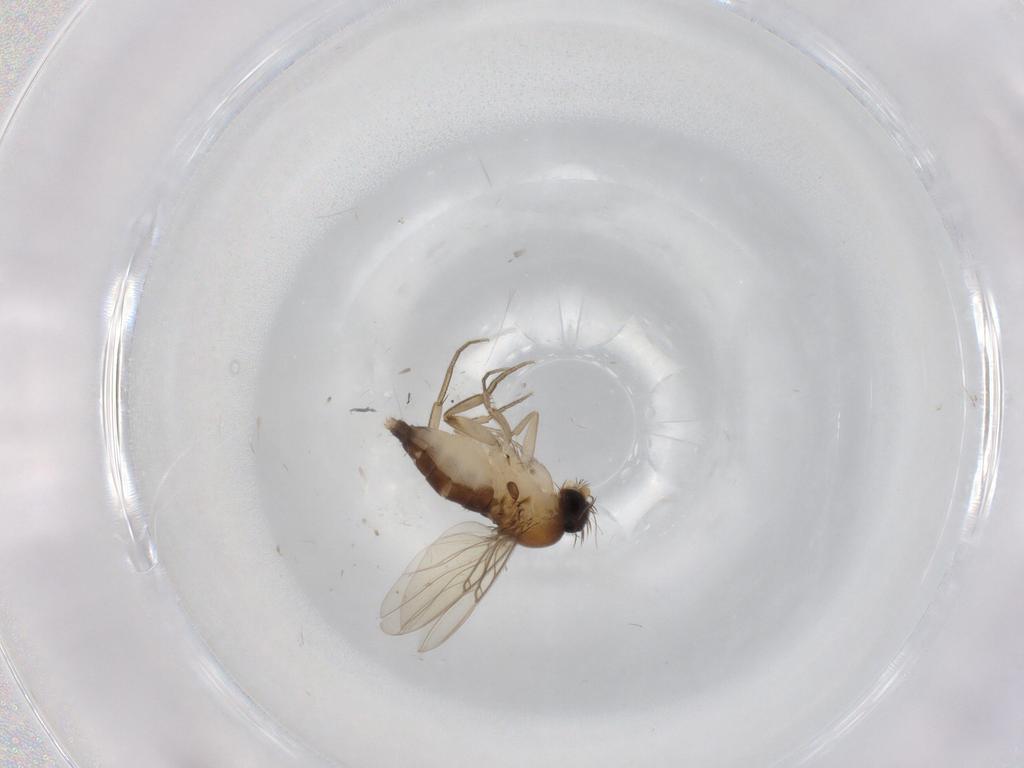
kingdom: Animalia
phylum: Arthropoda
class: Insecta
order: Diptera
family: Phoridae
